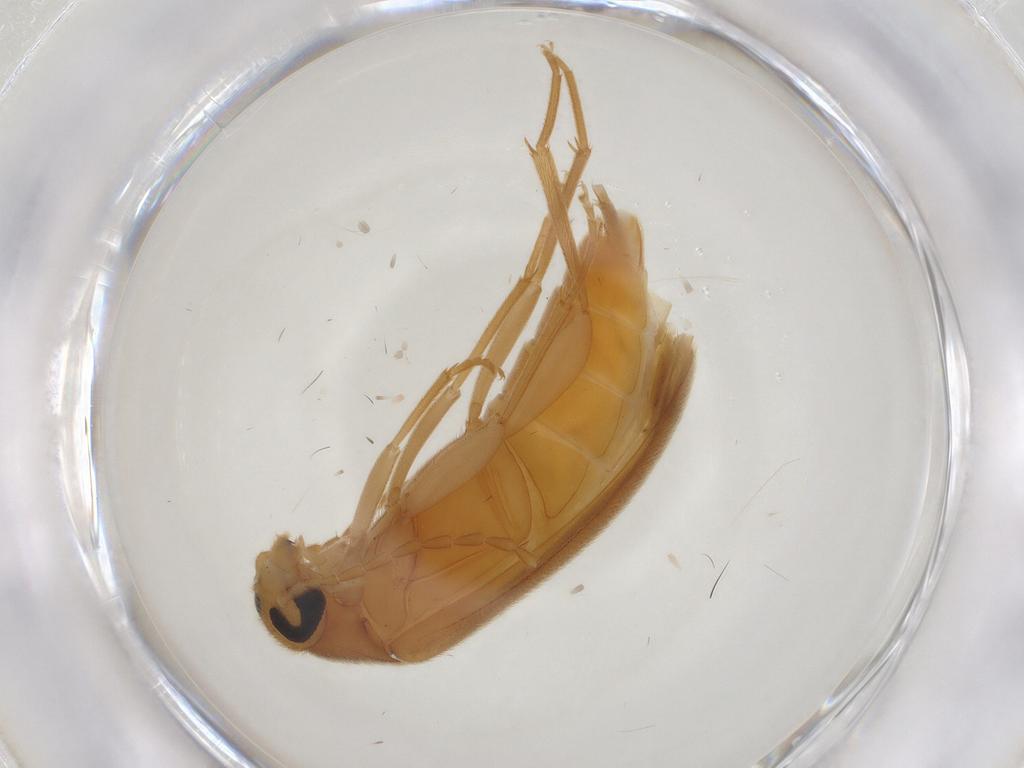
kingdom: Animalia
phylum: Arthropoda
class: Insecta
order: Coleoptera
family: Scraptiidae
